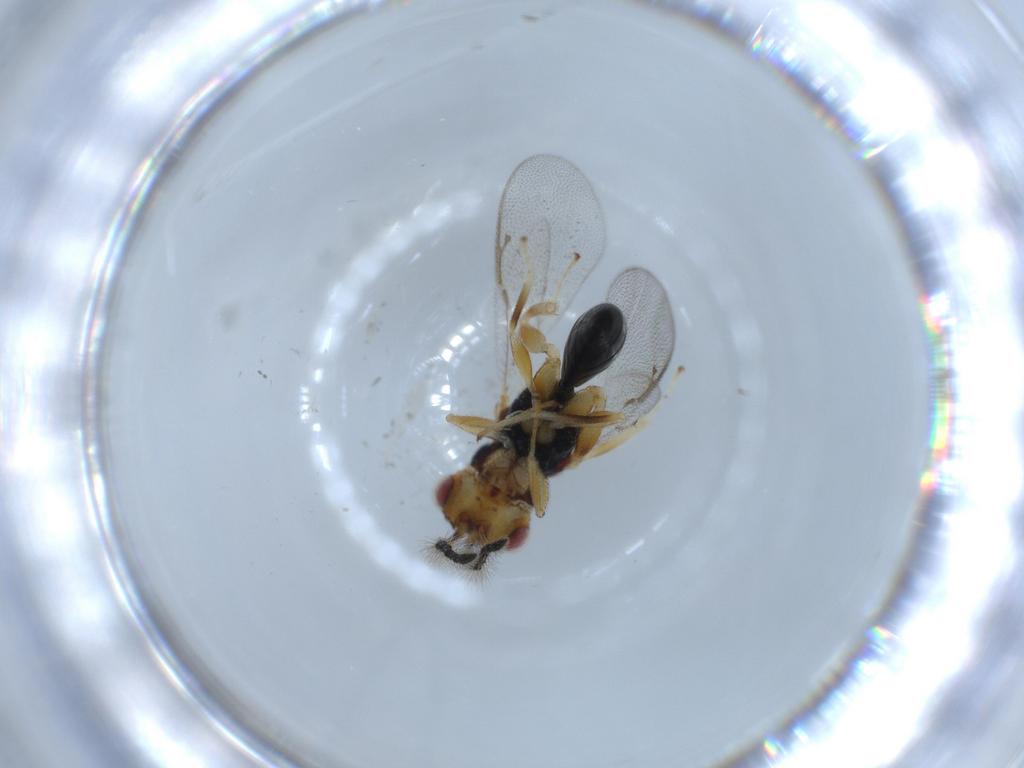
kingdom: Animalia
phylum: Arthropoda
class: Insecta
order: Hymenoptera
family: Eurytomidae
